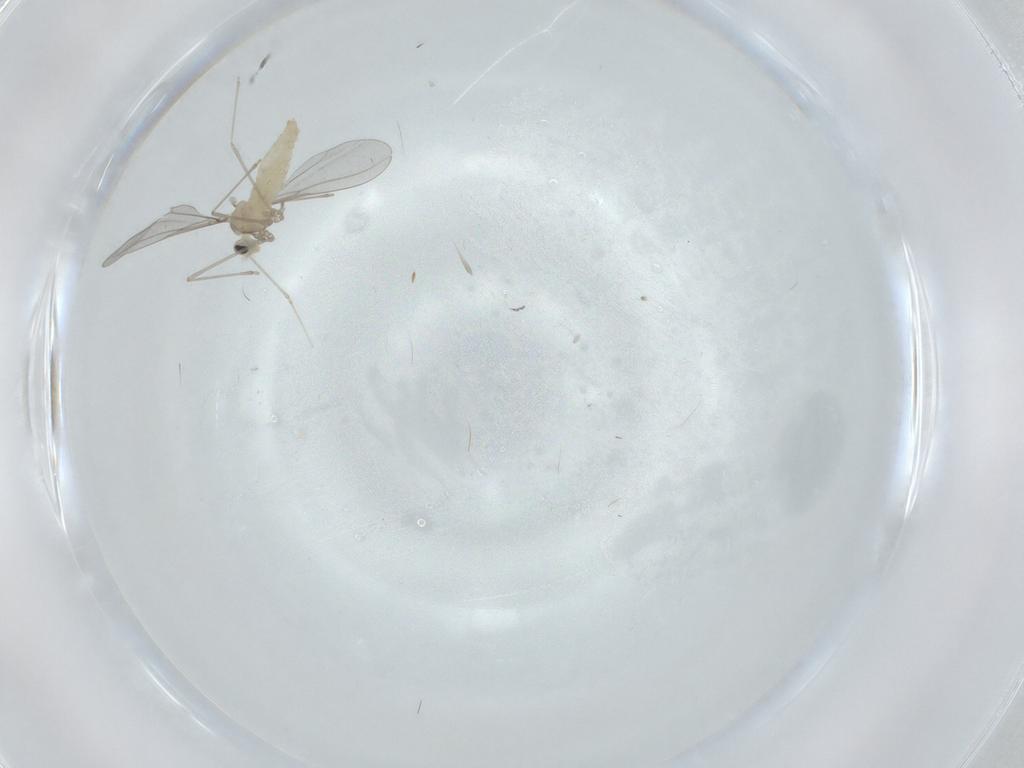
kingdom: Animalia
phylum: Arthropoda
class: Insecta
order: Diptera
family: Cecidomyiidae
